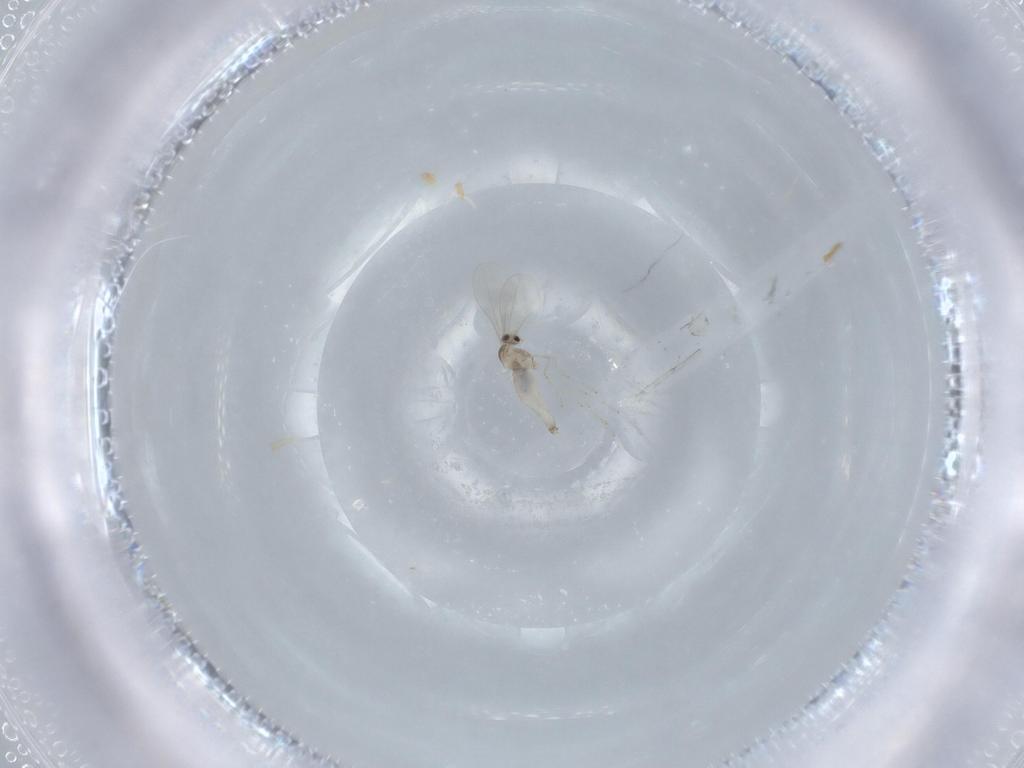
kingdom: Animalia
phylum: Arthropoda
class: Insecta
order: Diptera
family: Cecidomyiidae
